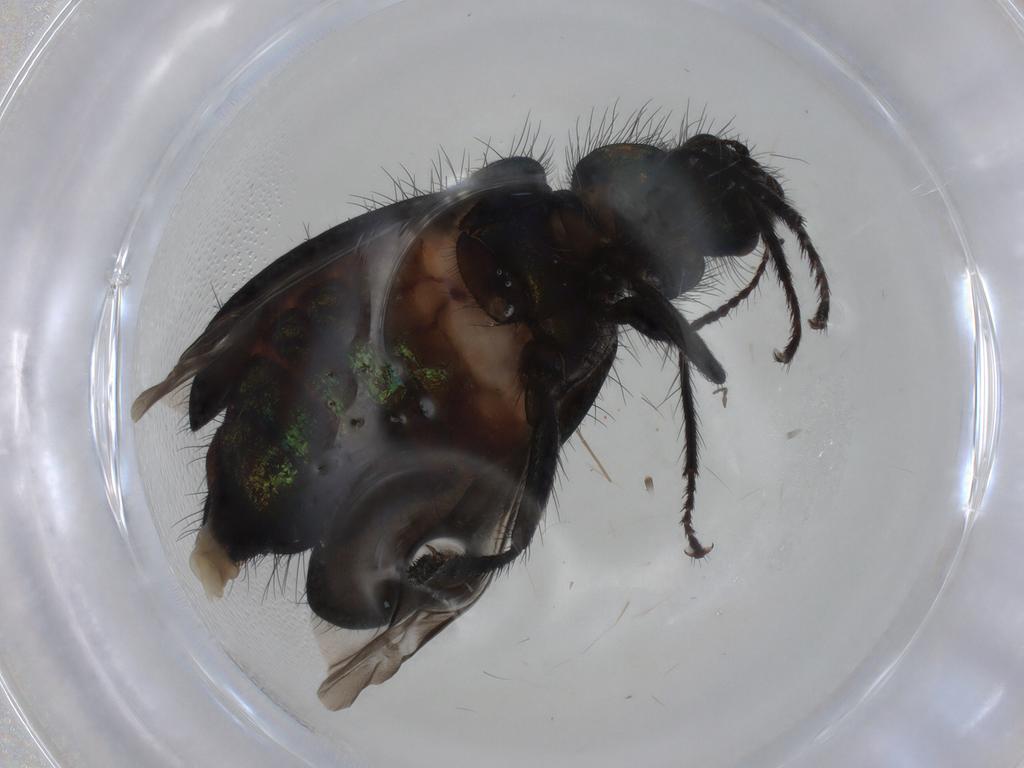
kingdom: Animalia
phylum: Arthropoda
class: Insecta
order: Coleoptera
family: Melyridae
